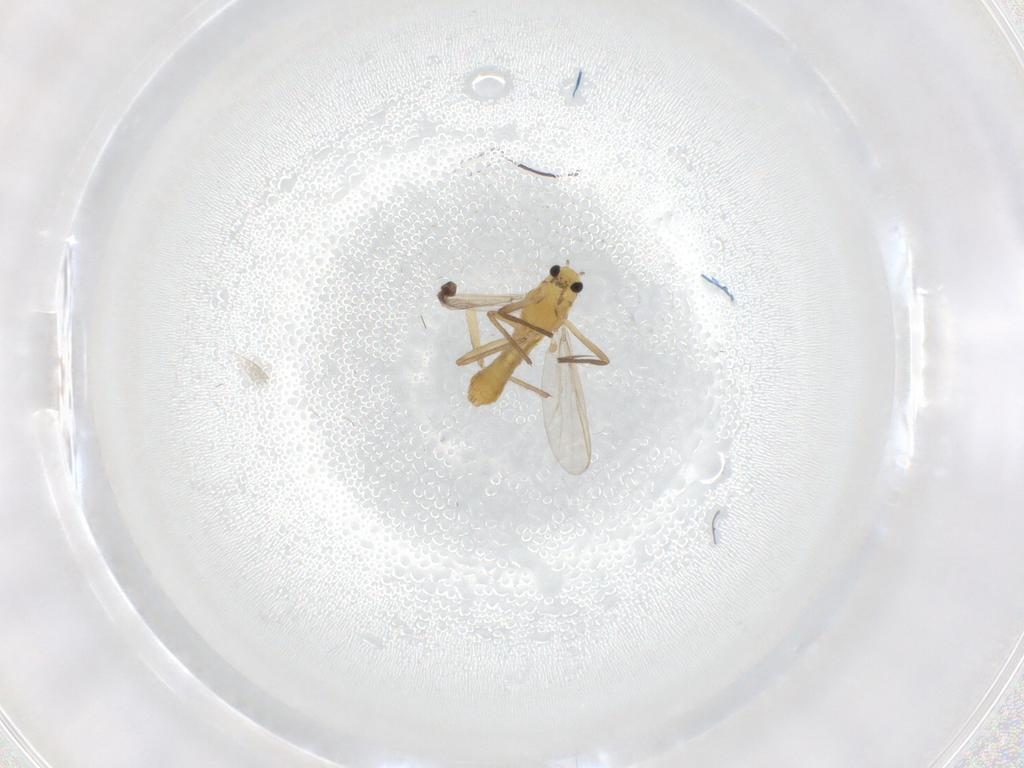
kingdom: Animalia
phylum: Arthropoda
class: Insecta
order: Diptera
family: Chironomidae
